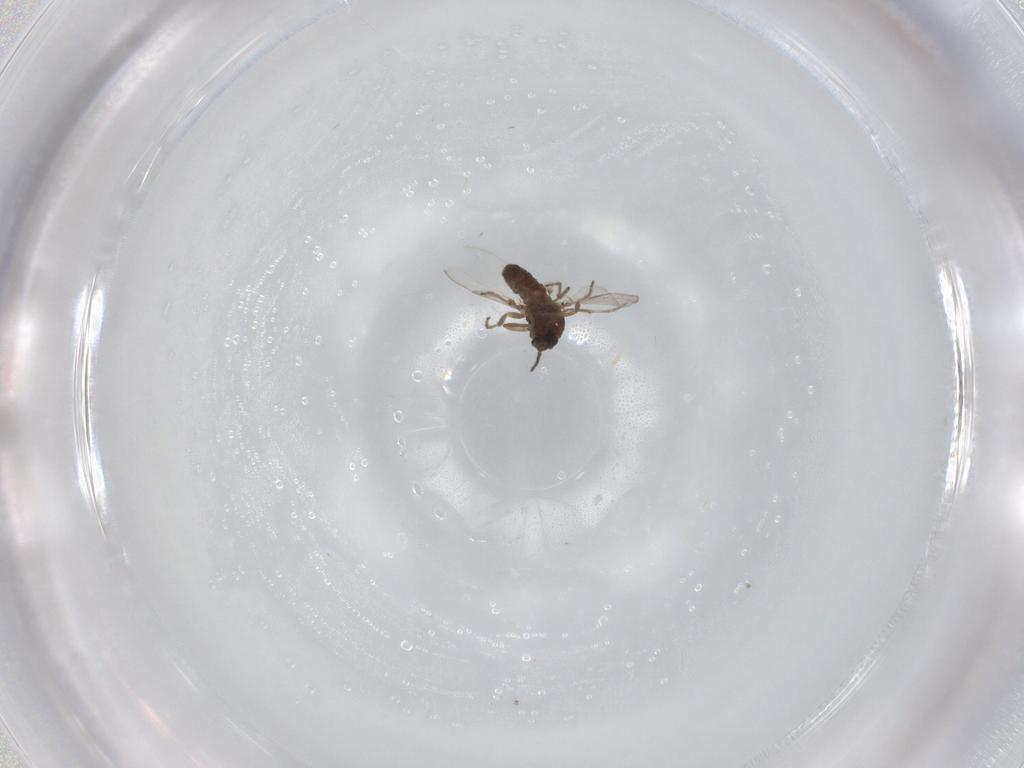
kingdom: Animalia
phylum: Arthropoda
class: Insecta
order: Diptera
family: Ceratopogonidae
